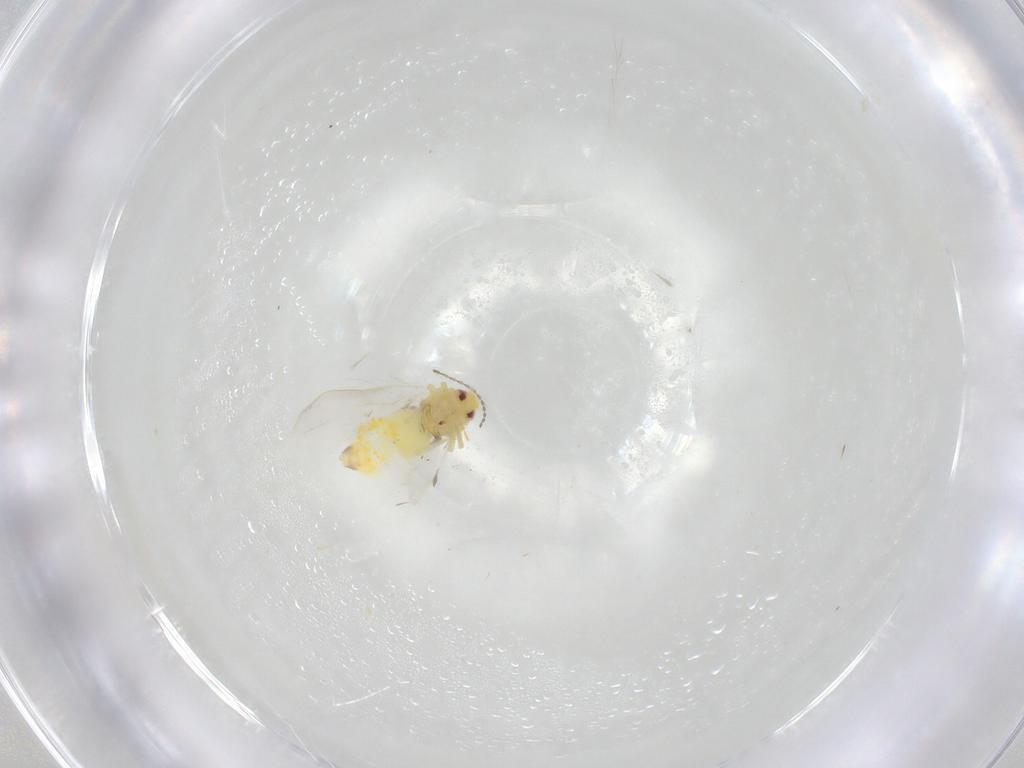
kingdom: Animalia
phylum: Arthropoda
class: Insecta
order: Hemiptera
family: Aleyrodidae
